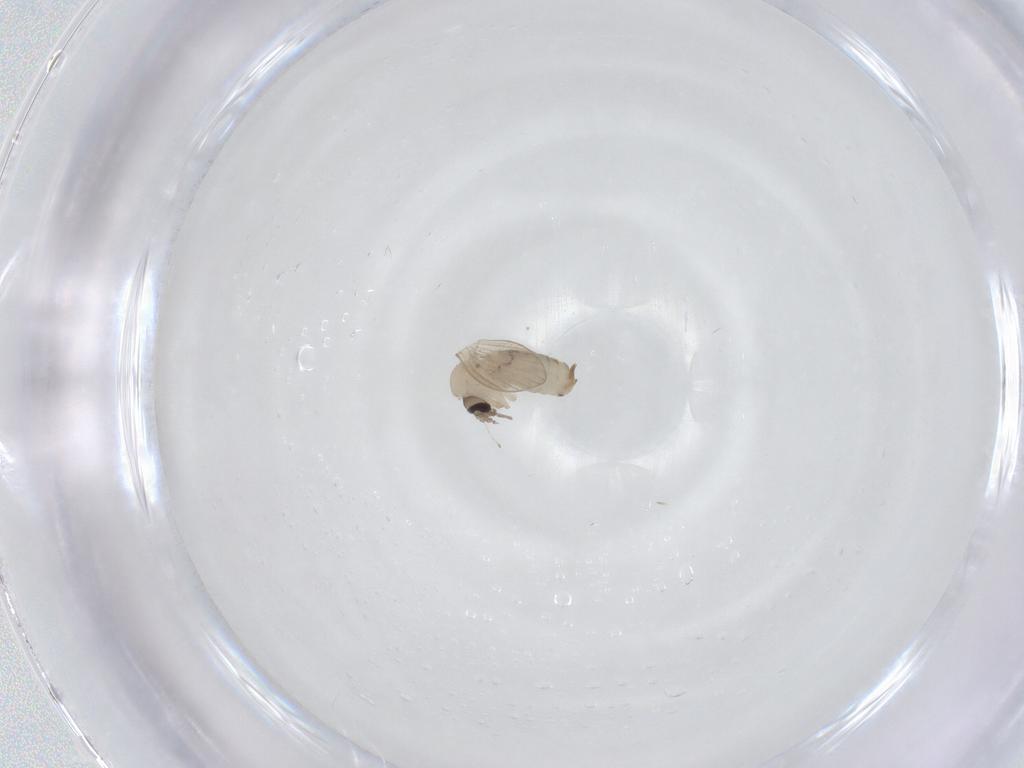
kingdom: Animalia
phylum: Arthropoda
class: Insecta
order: Diptera
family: Psychodidae
